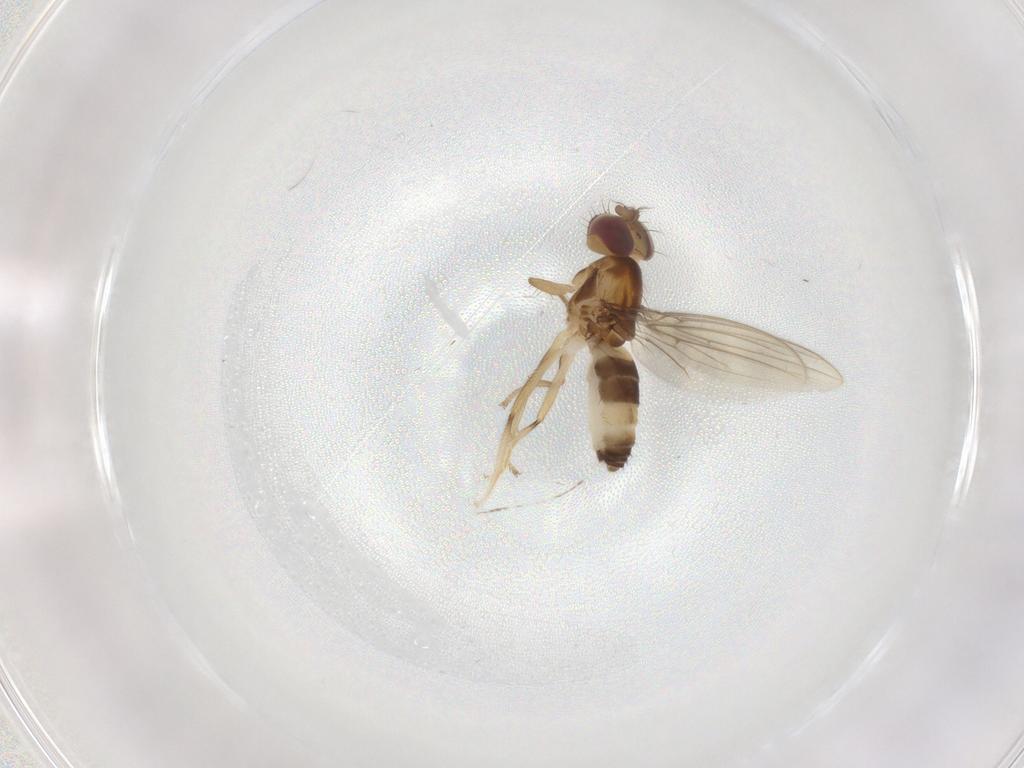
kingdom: Animalia
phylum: Arthropoda
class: Insecta
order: Diptera
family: Periscelididae
